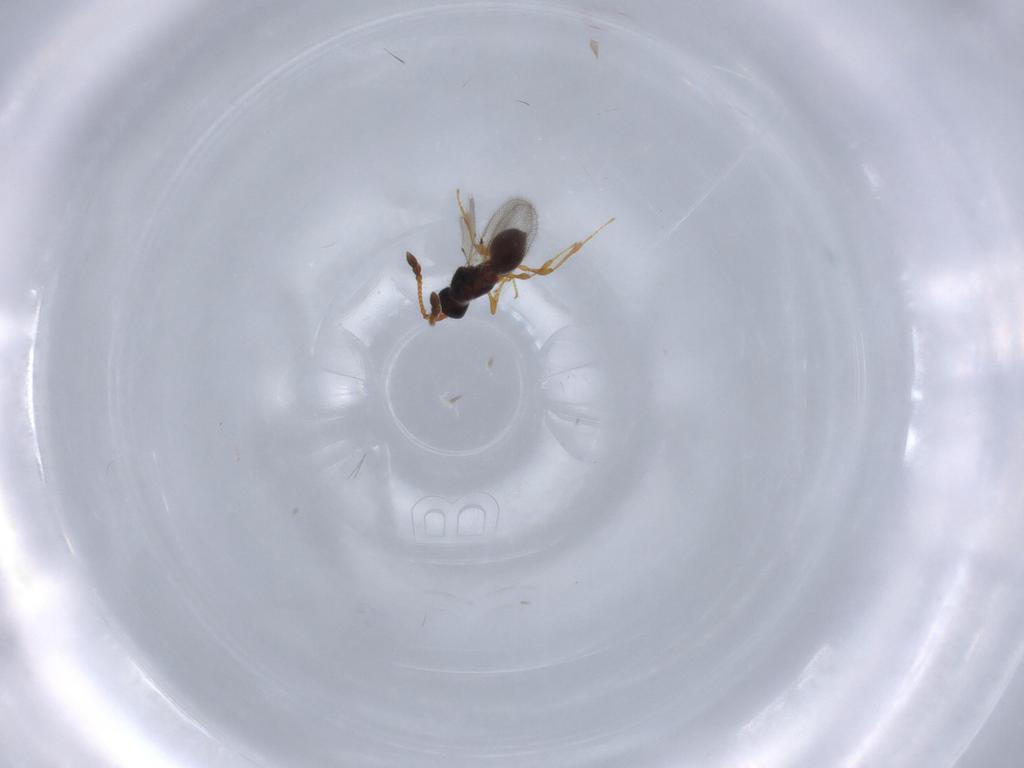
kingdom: Animalia
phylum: Arthropoda
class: Insecta
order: Hymenoptera
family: Diapriidae
